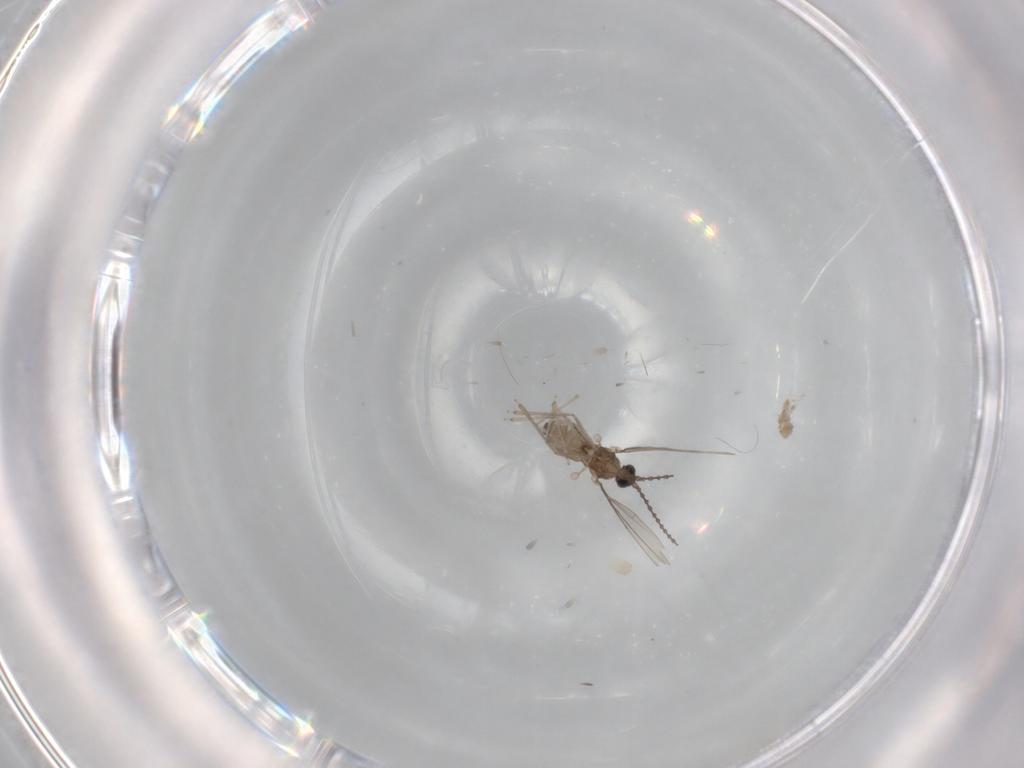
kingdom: Animalia
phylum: Arthropoda
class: Insecta
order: Diptera
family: Cecidomyiidae
